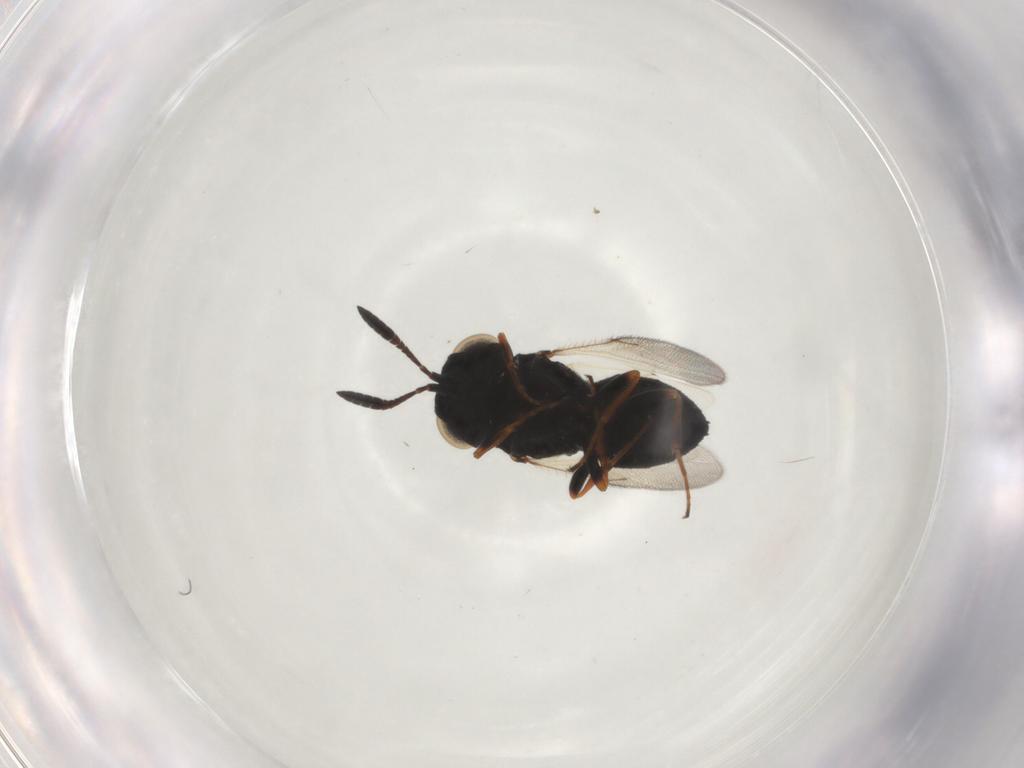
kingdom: Animalia
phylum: Arthropoda
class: Insecta
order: Hymenoptera
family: Scelionidae
